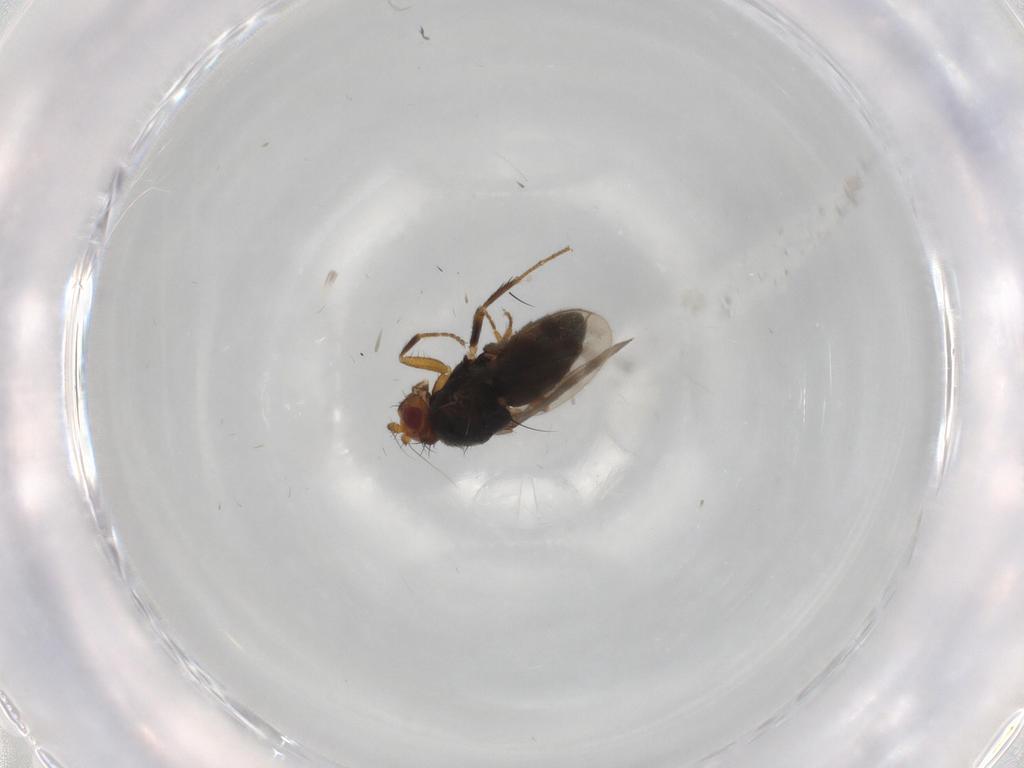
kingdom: Animalia
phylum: Arthropoda
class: Insecta
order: Diptera
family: Sphaeroceridae
